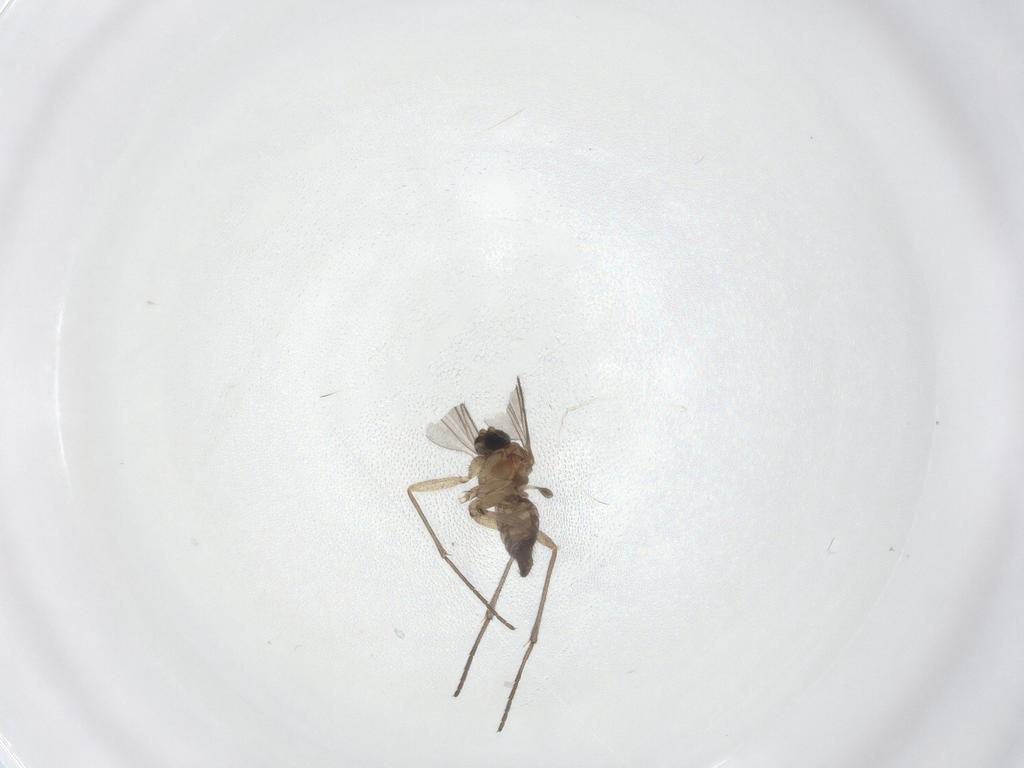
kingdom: Animalia
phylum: Arthropoda
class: Insecta
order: Diptera
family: Sciaridae
